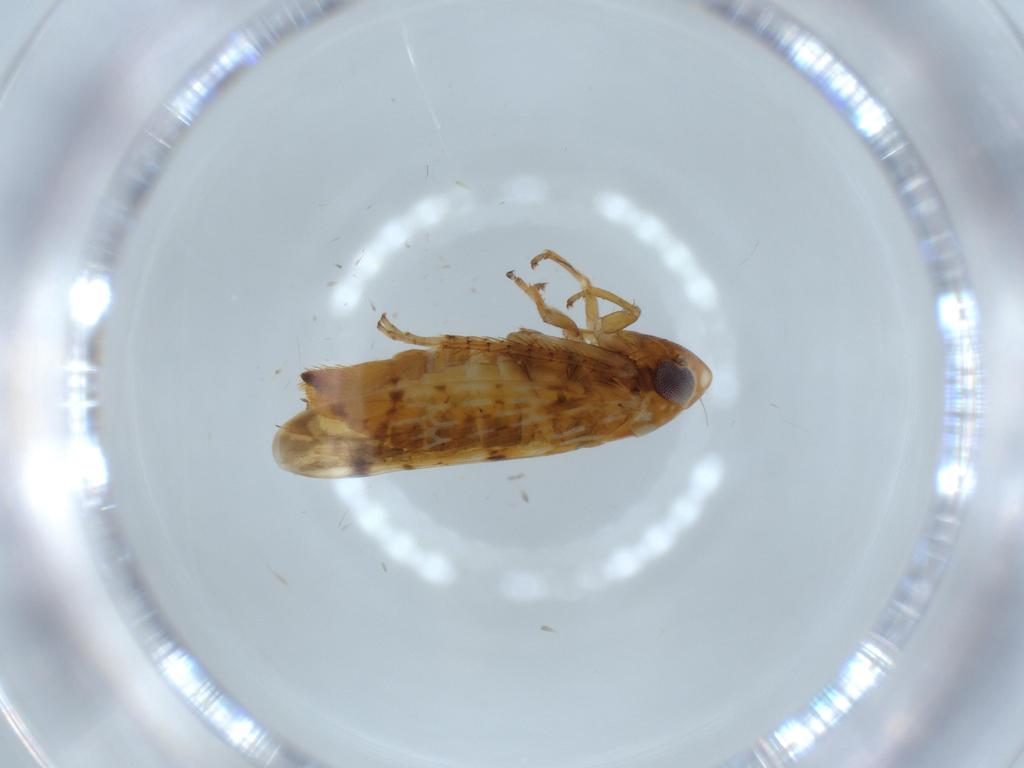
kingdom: Animalia
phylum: Arthropoda
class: Insecta
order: Hemiptera
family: Cicadellidae
